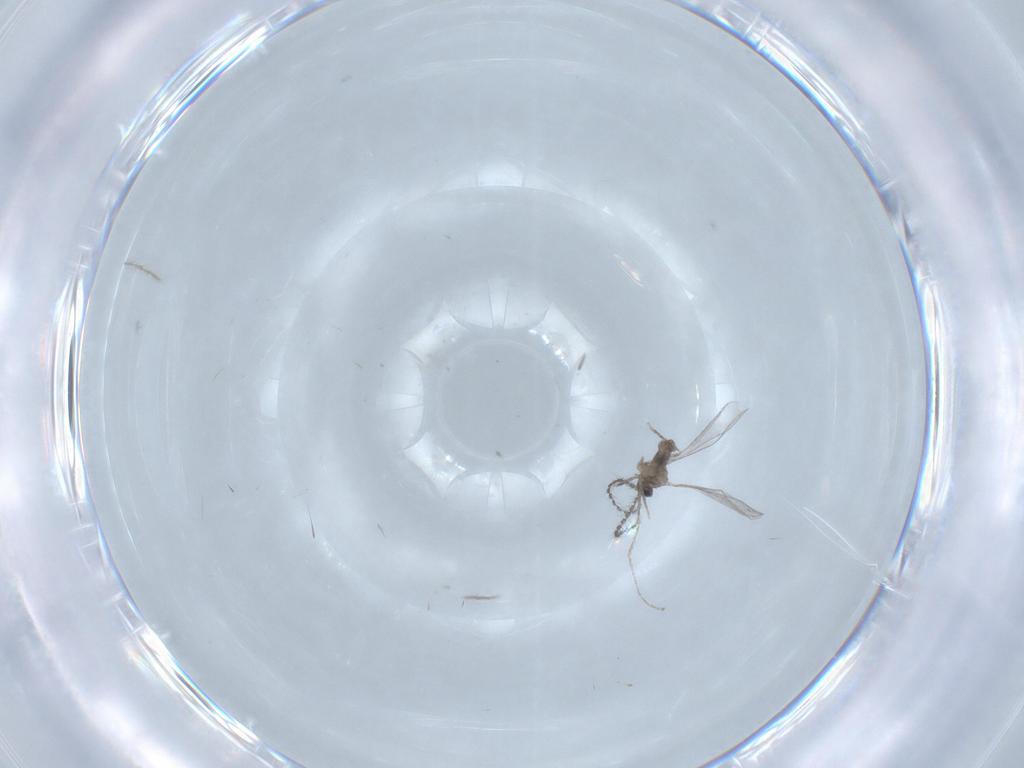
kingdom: Animalia
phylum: Arthropoda
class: Insecta
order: Diptera
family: Chironomidae
